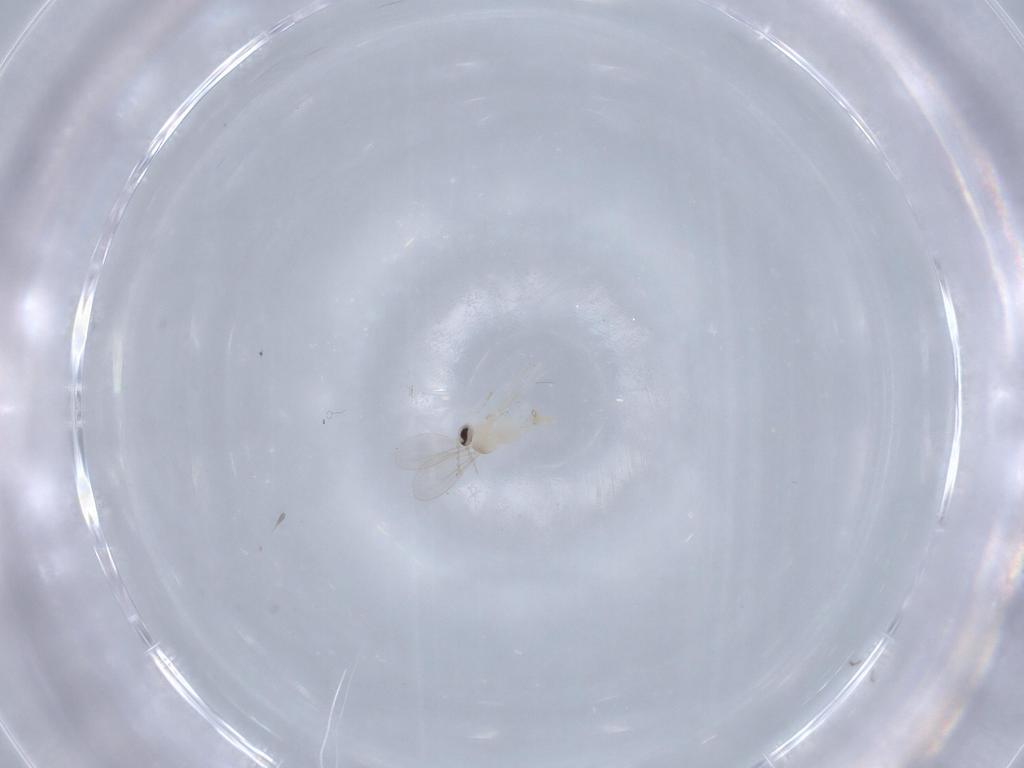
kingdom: Animalia
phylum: Arthropoda
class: Insecta
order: Diptera
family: Cecidomyiidae
